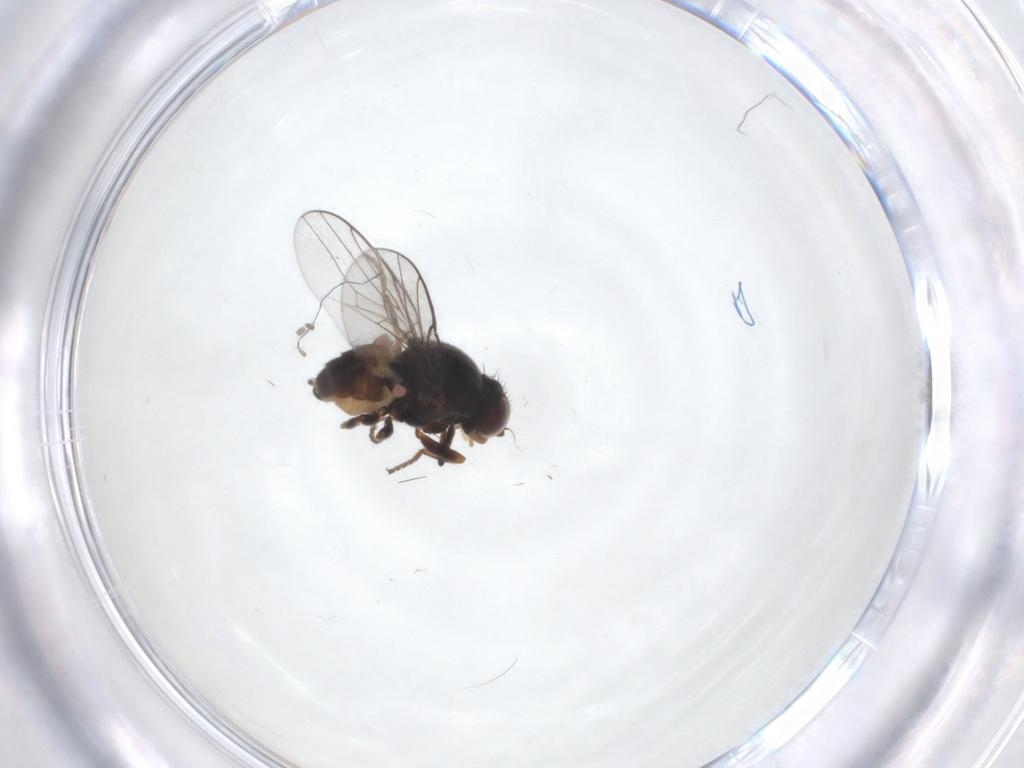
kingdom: Animalia
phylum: Arthropoda
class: Insecta
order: Diptera
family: Chloropidae
